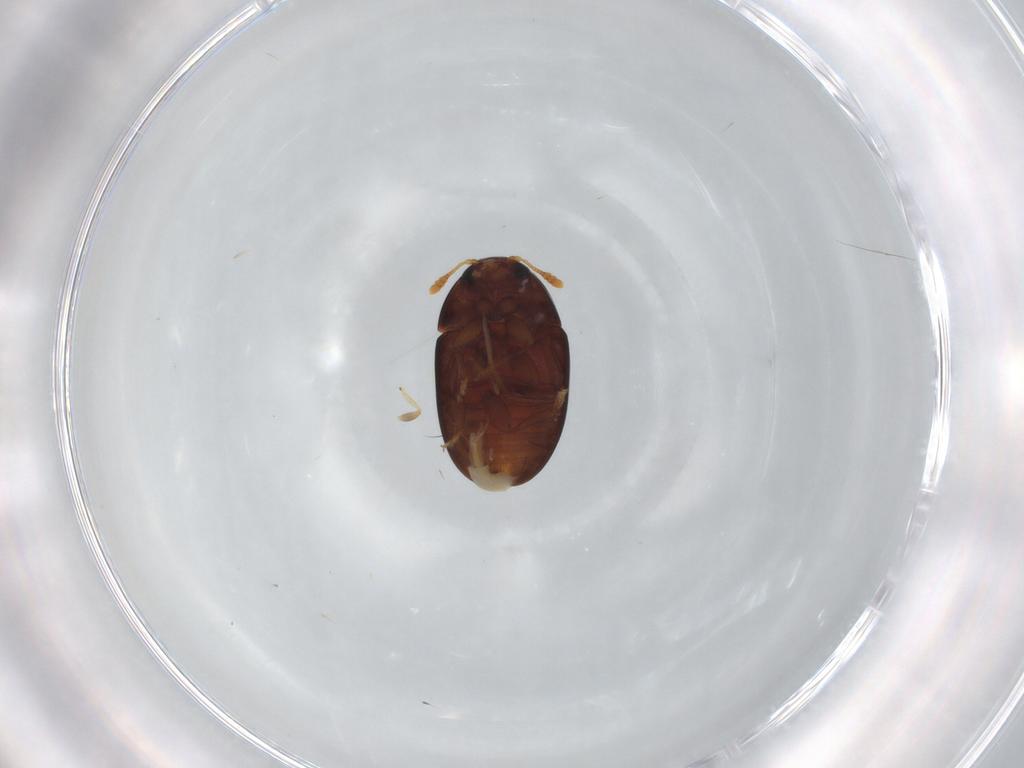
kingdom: Animalia
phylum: Arthropoda
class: Insecta
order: Coleoptera
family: Phalacridae
